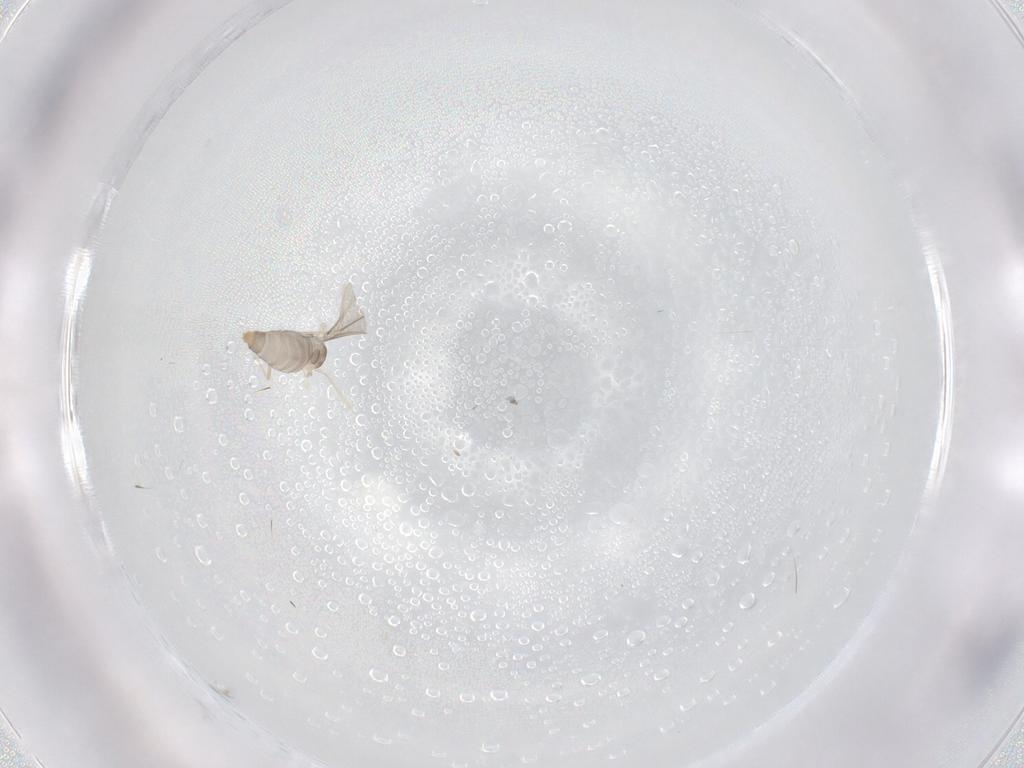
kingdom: Animalia
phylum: Arthropoda
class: Insecta
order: Diptera
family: Cecidomyiidae
